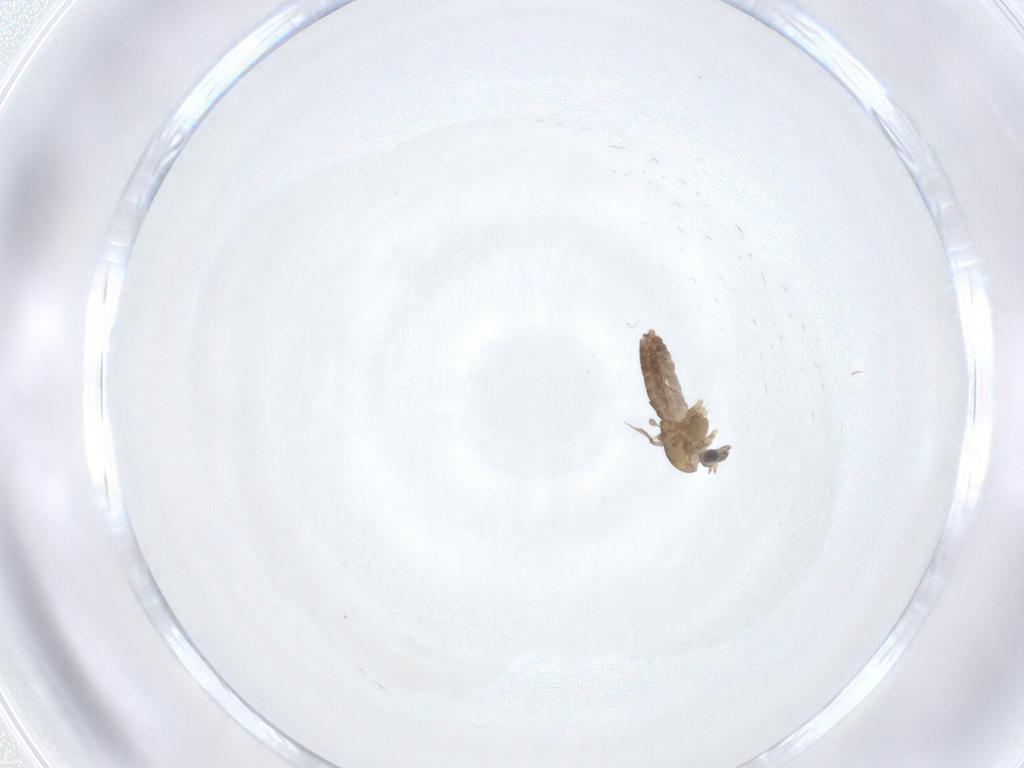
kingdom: Animalia
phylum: Arthropoda
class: Insecta
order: Diptera
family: Chironomidae
